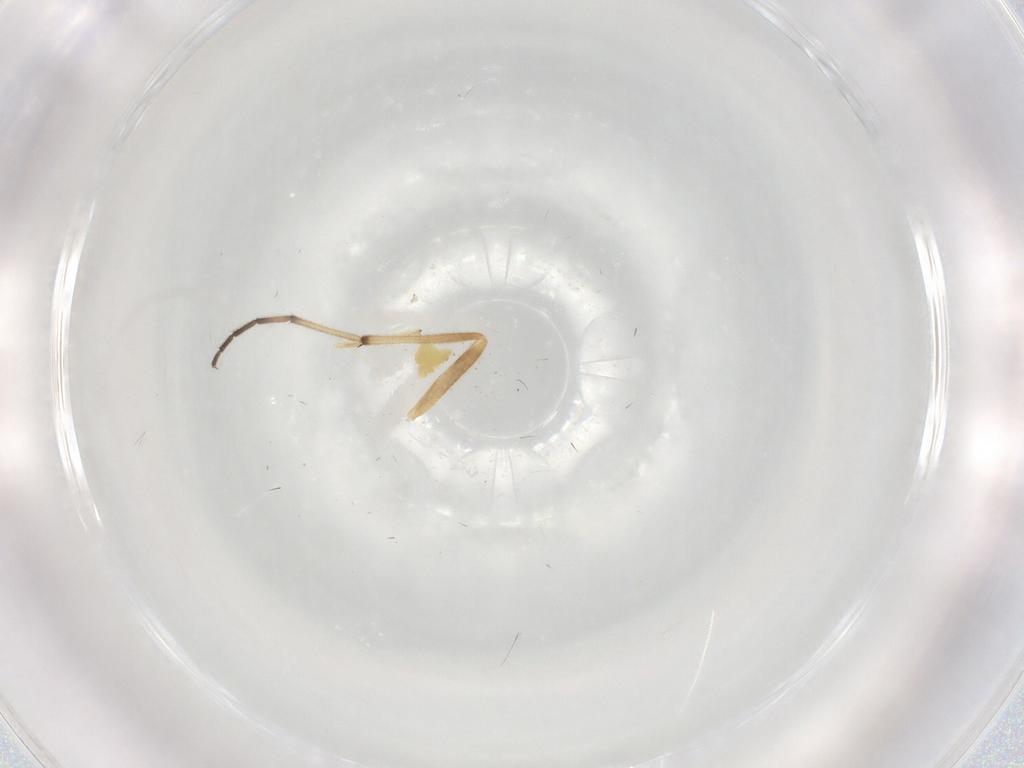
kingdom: Animalia
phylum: Arthropoda
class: Insecta
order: Diptera
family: Chironomidae
